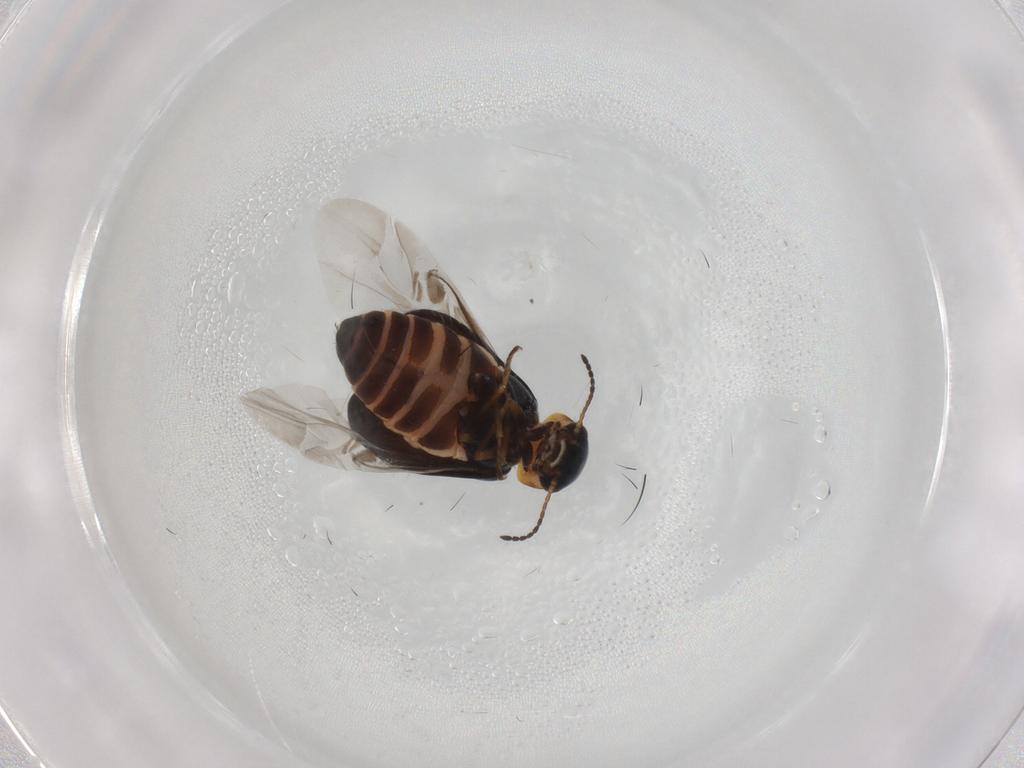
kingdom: Animalia
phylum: Arthropoda
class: Insecta
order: Coleoptera
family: Melyridae
